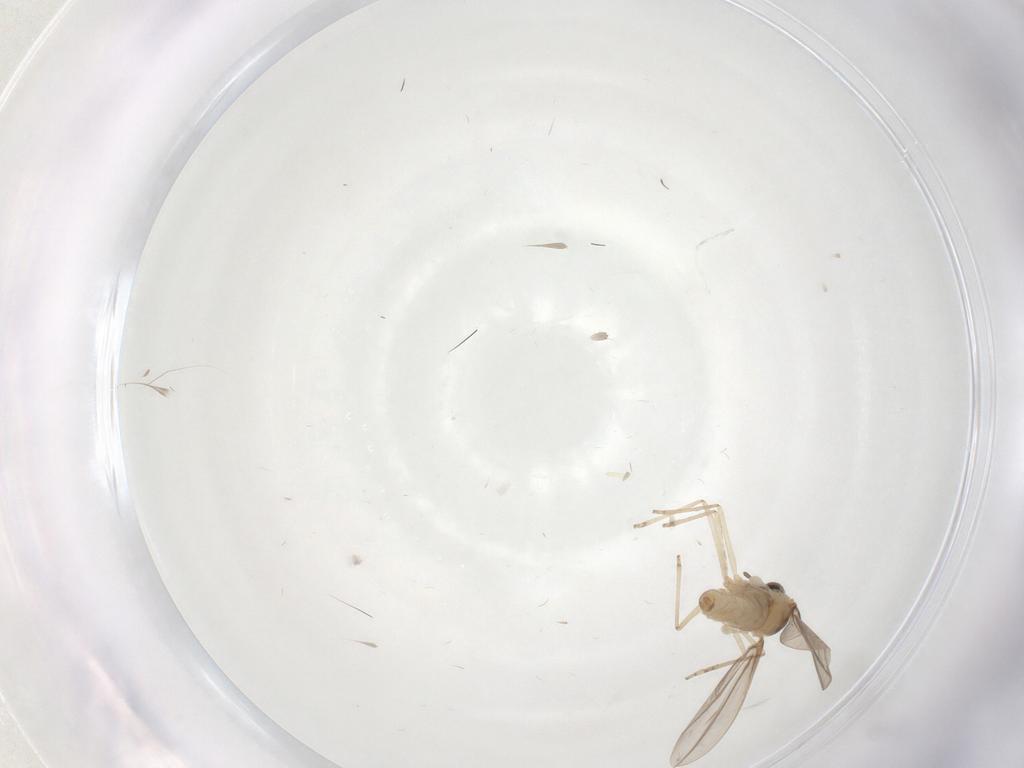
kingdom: Animalia
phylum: Arthropoda
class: Insecta
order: Diptera
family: Cecidomyiidae
